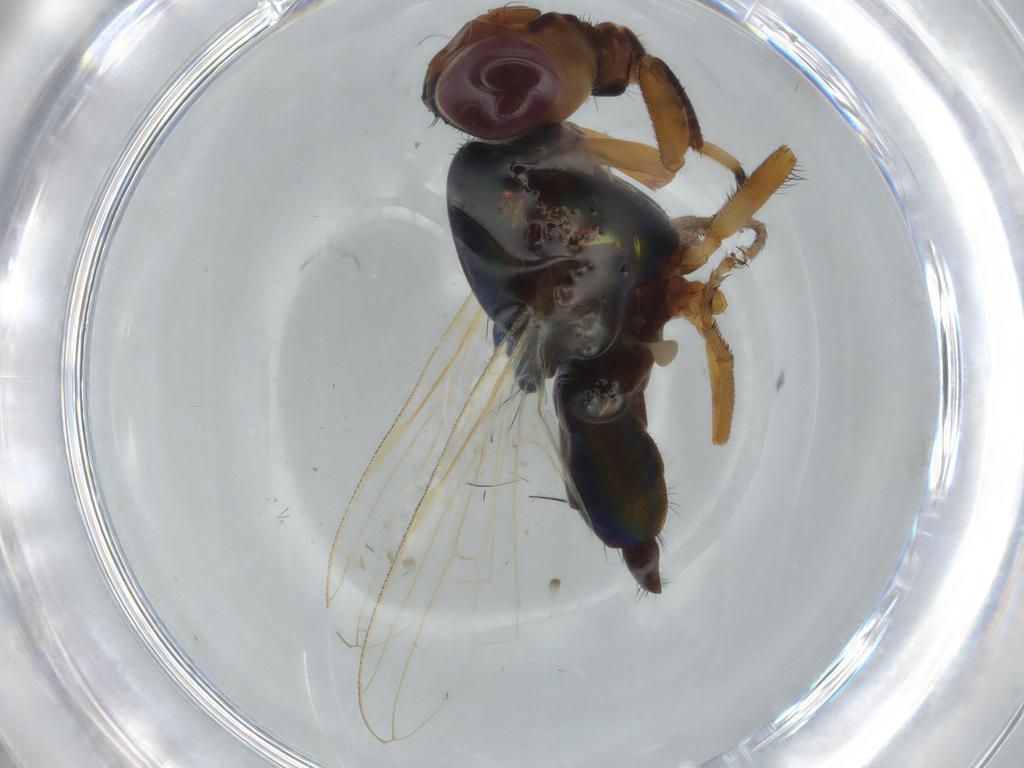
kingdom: Animalia
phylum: Arthropoda
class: Insecta
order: Diptera
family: Ulidiidae
